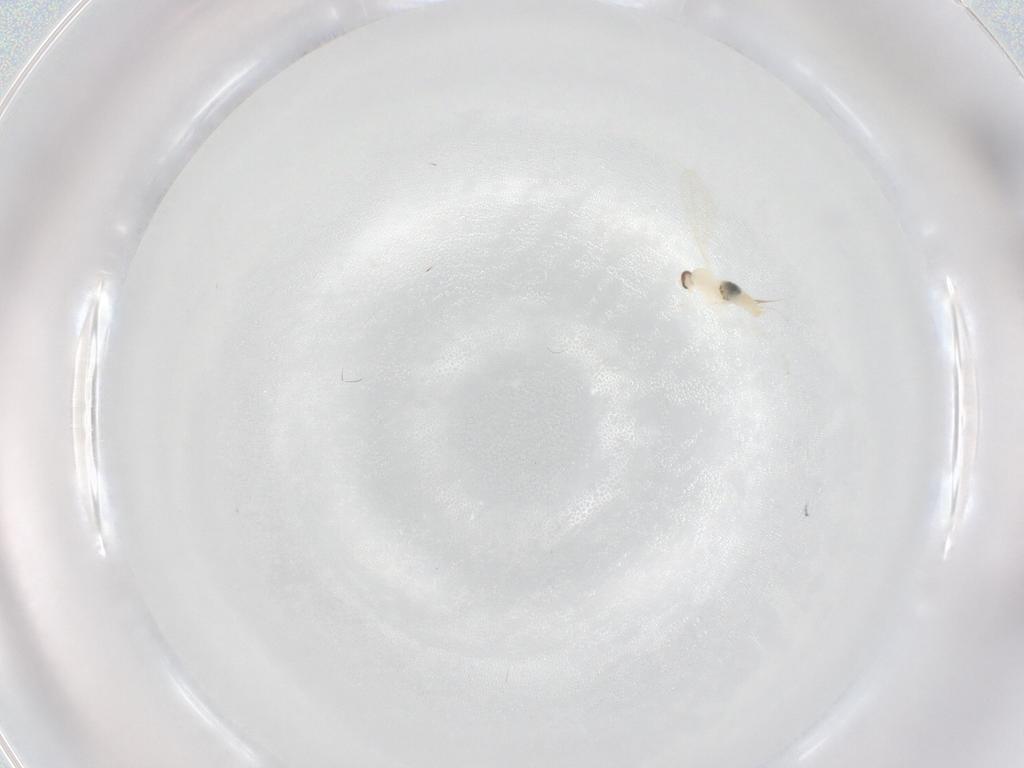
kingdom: Animalia
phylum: Arthropoda
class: Insecta
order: Diptera
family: Cecidomyiidae
